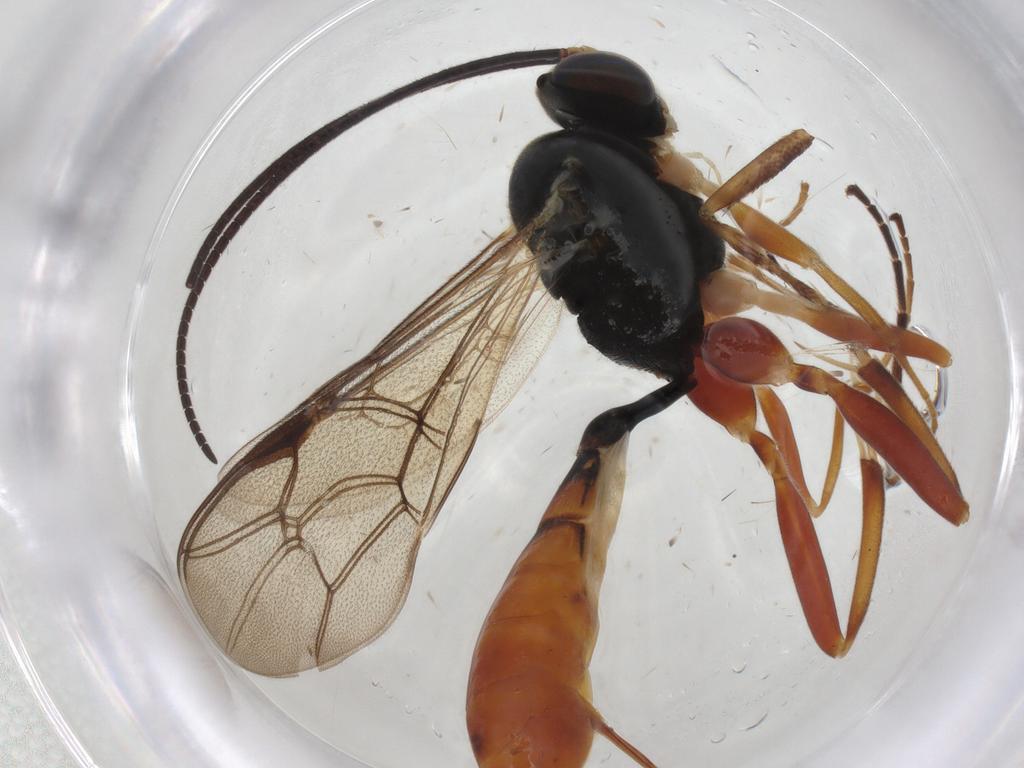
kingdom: Animalia
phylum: Arthropoda
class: Insecta
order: Hymenoptera
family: Ichneumonidae
